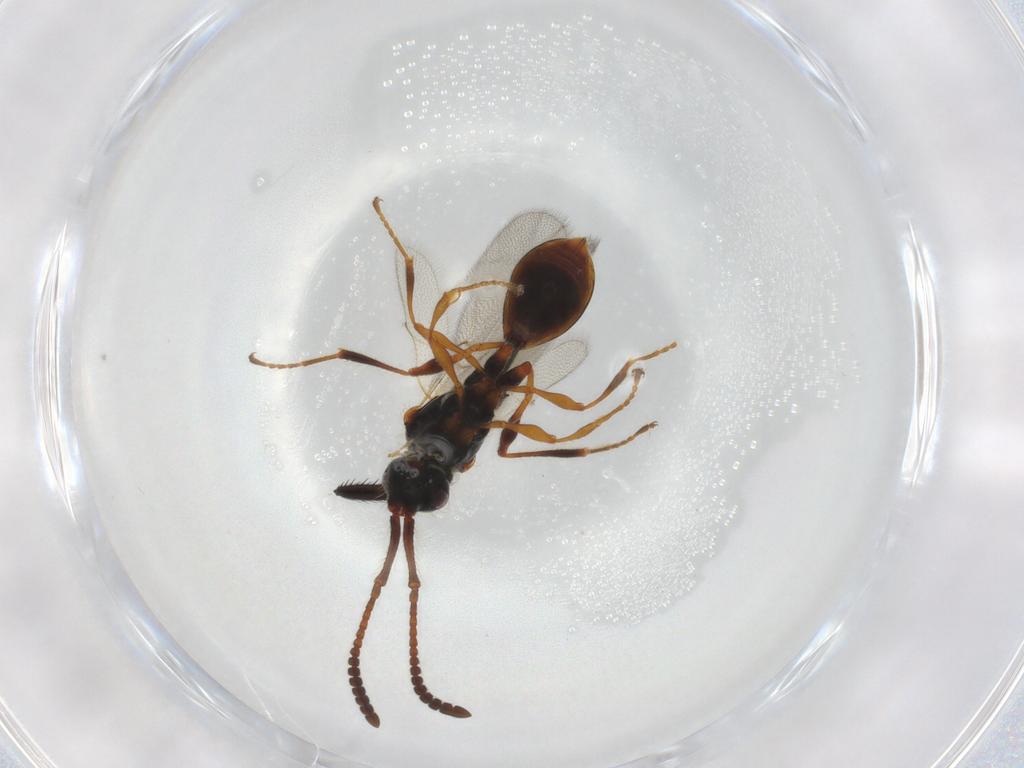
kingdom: Animalia
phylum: Arthropoda
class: Insecta
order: Hymenoptera
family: Diapriidae
